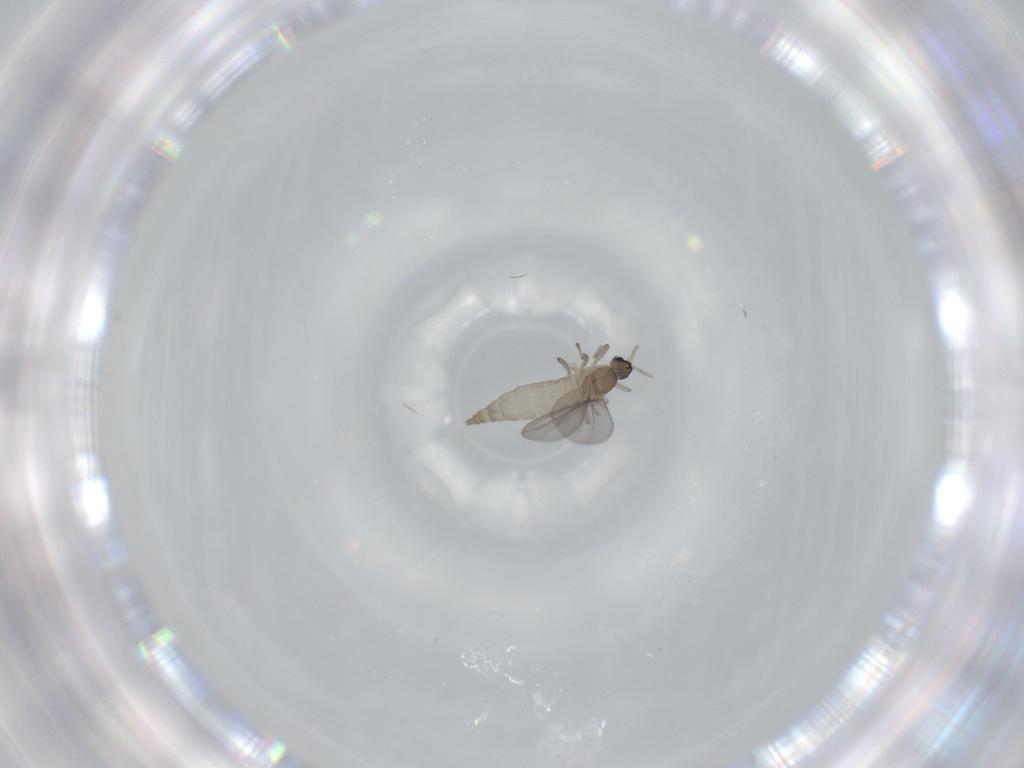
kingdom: Animalia
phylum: Arthropoda
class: Insecta
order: Diptera
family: Cecidomyiidae
